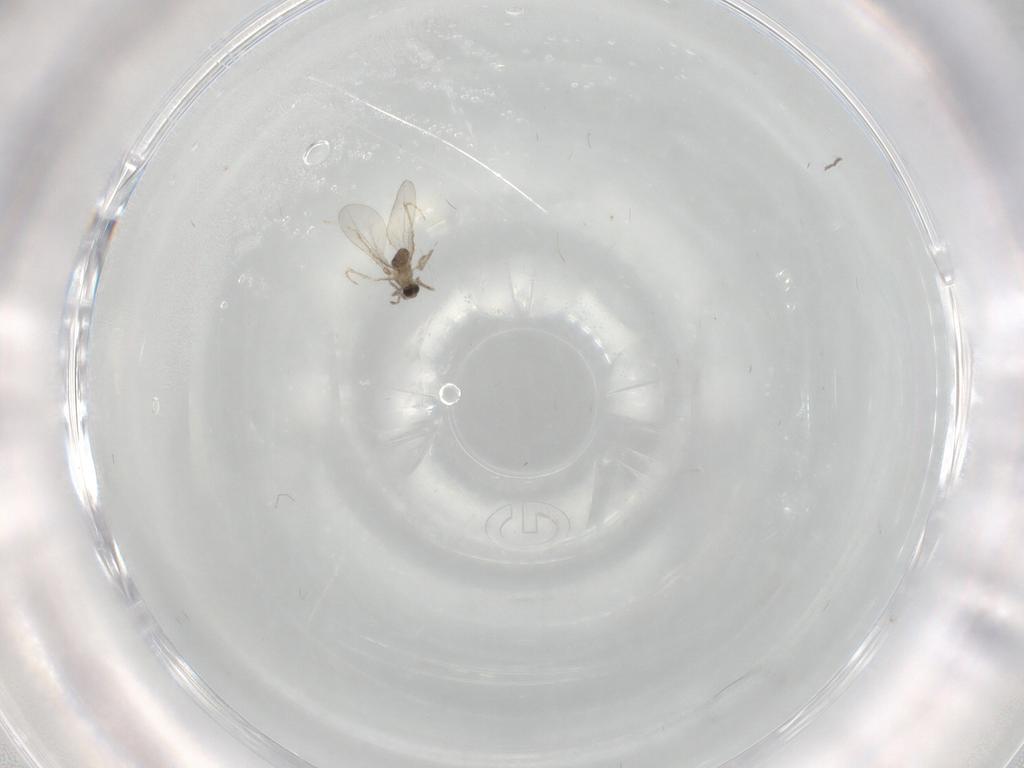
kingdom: Animalia
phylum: Arthropoda
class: Insecta
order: Diptera
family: Cecidomyiidae
